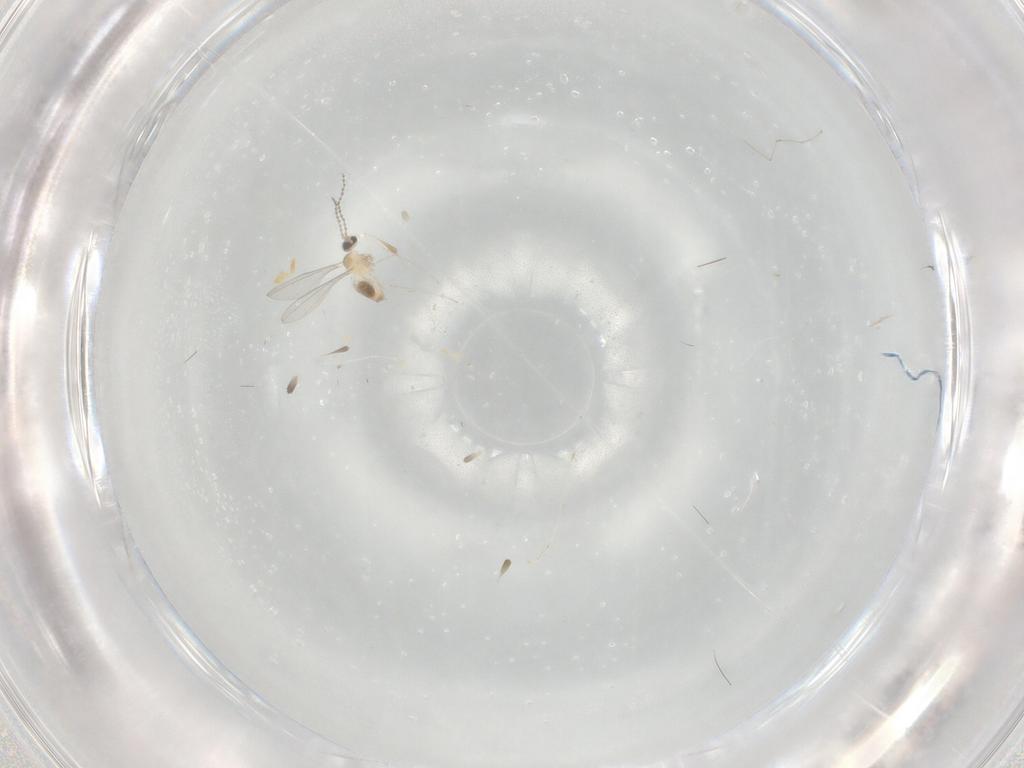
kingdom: Animalia
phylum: Arthropoda
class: Insecta
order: Diptera
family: Cecidomyiidae
